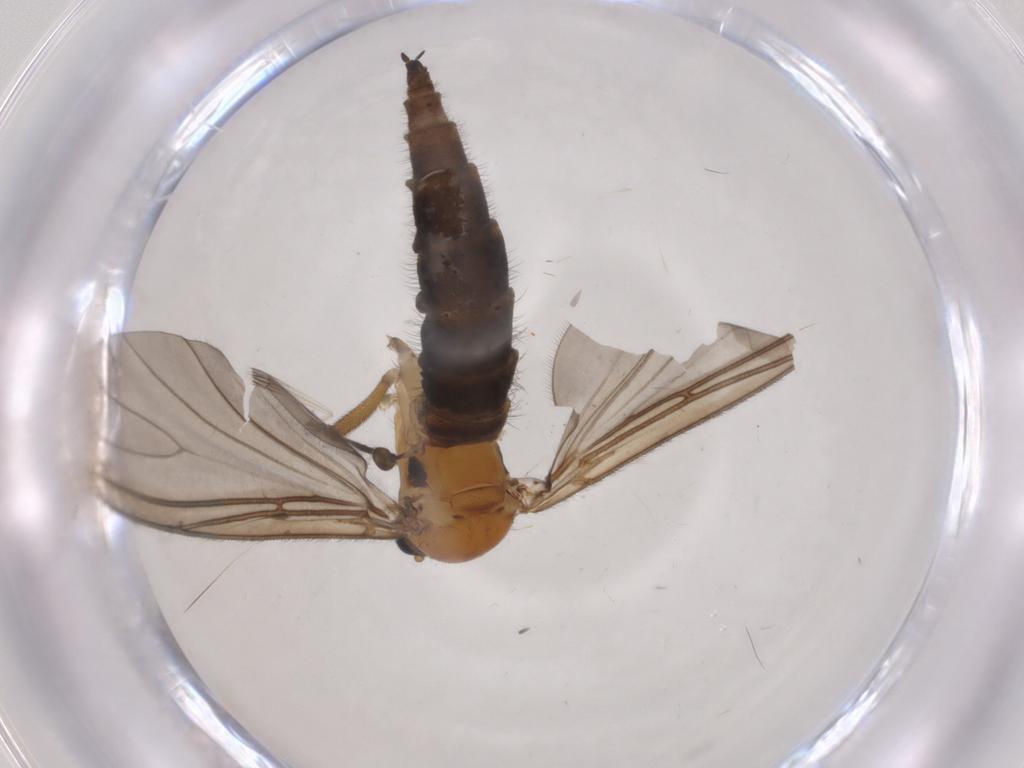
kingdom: Animalia
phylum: Arthropoda
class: Insecta
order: Diptera
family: Sciaridae
